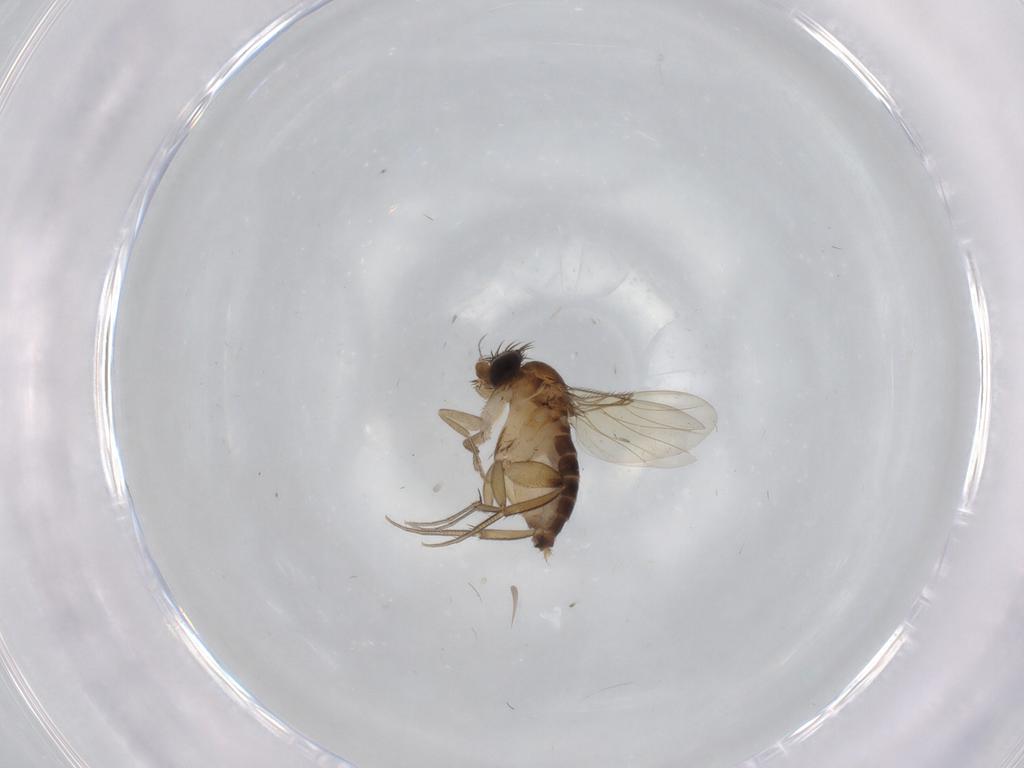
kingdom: Animalia
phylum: Arthropoda
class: Insecta
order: Diptera
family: Phoridae
